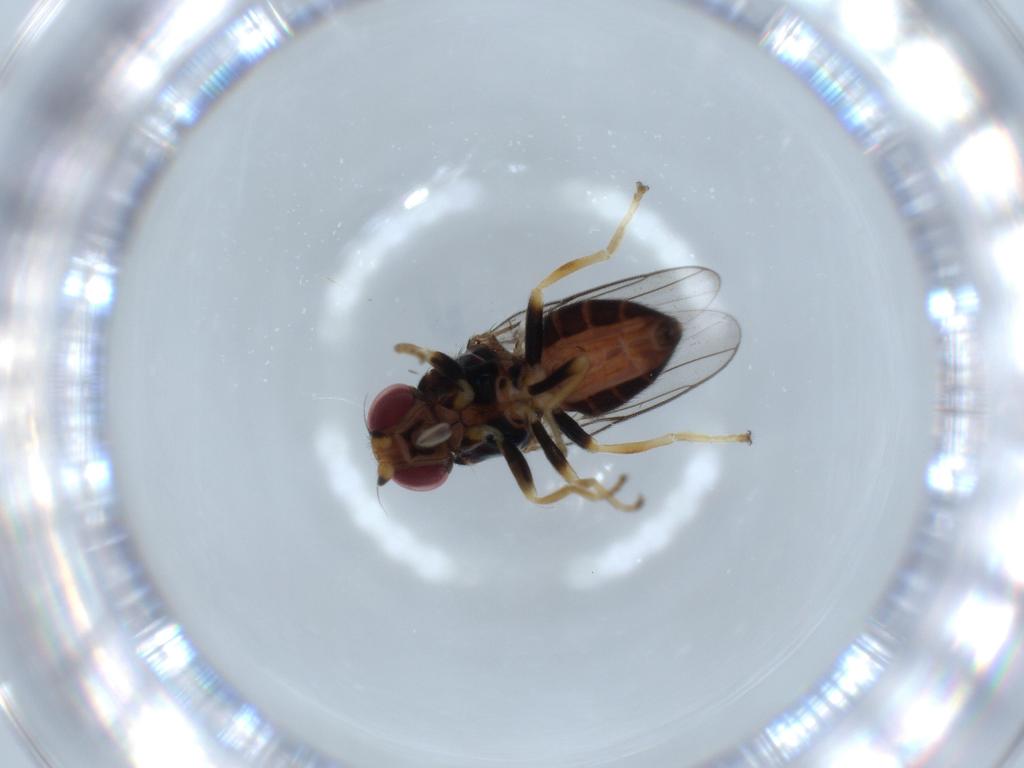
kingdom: Animalia
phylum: Arthropoda
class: Insecta
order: Diptera
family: Chloropidae
